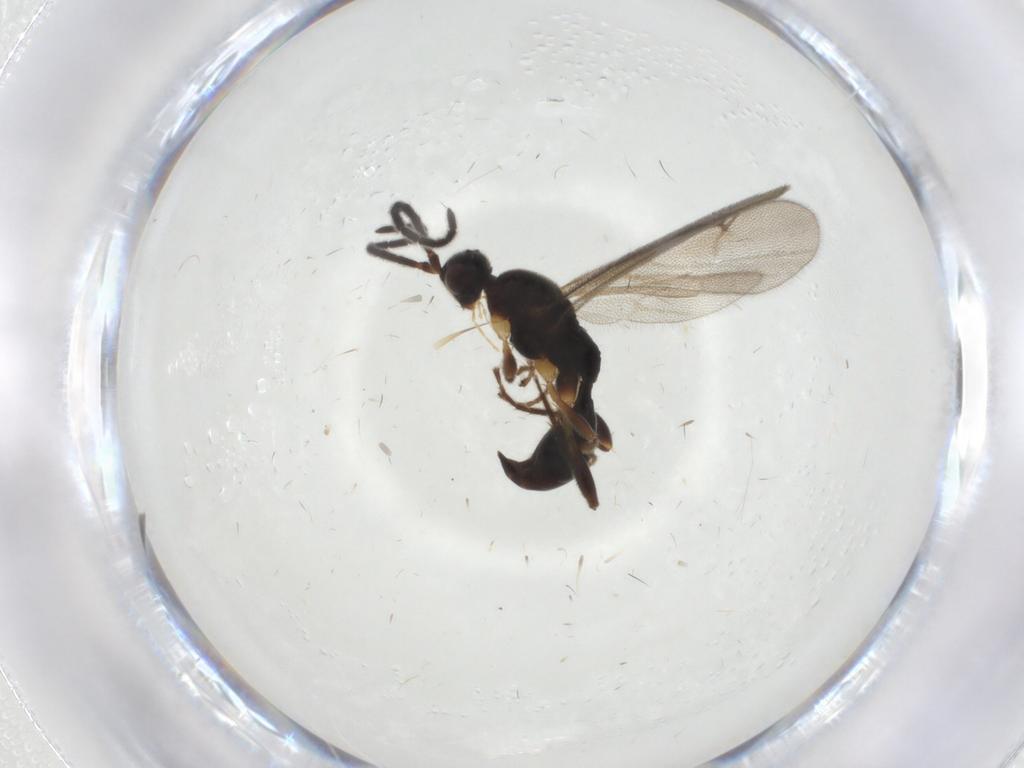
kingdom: Animalia
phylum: Arthropoda
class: Insecta
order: Hymenoptera
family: Proctotrupidae
